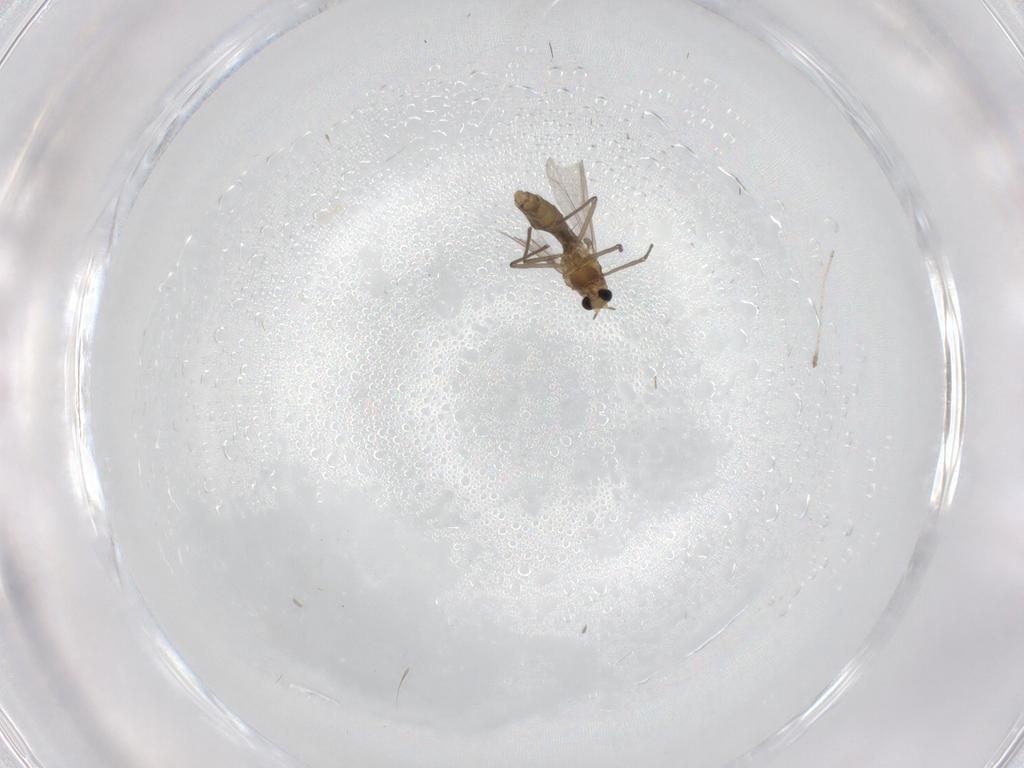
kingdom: Animalia
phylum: Arthropoda
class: Insecta
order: Diptera
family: Phoridae
